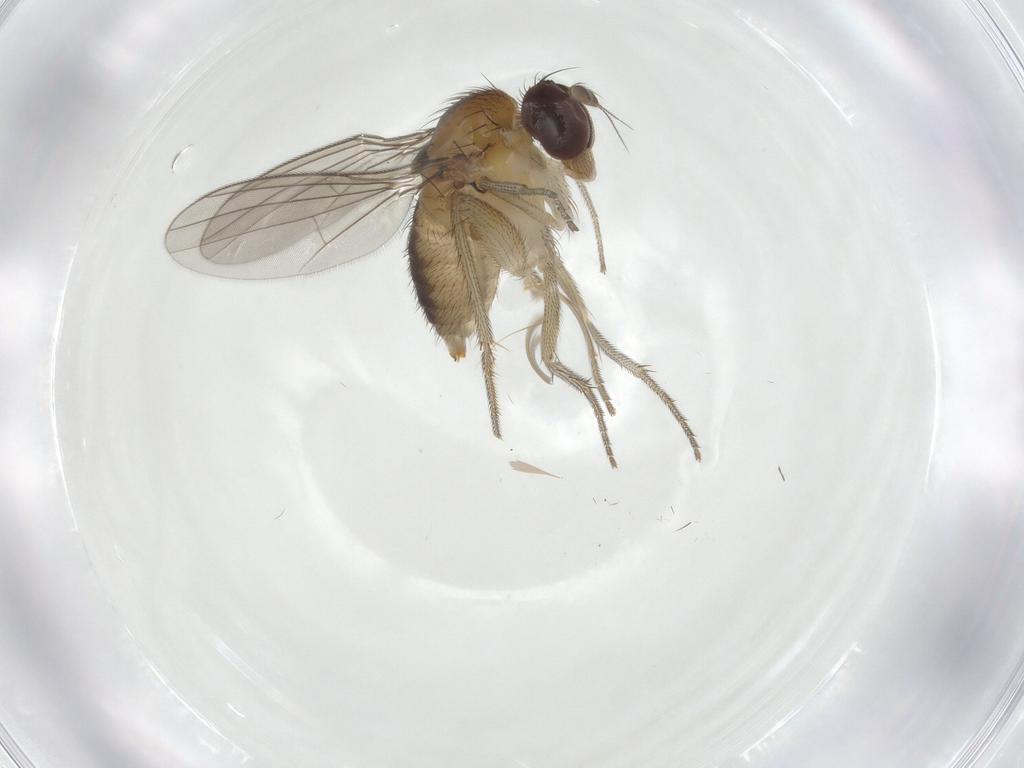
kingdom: Animalia
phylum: Arthropoda
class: Insecta
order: Diptera
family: Dolichopodidae
